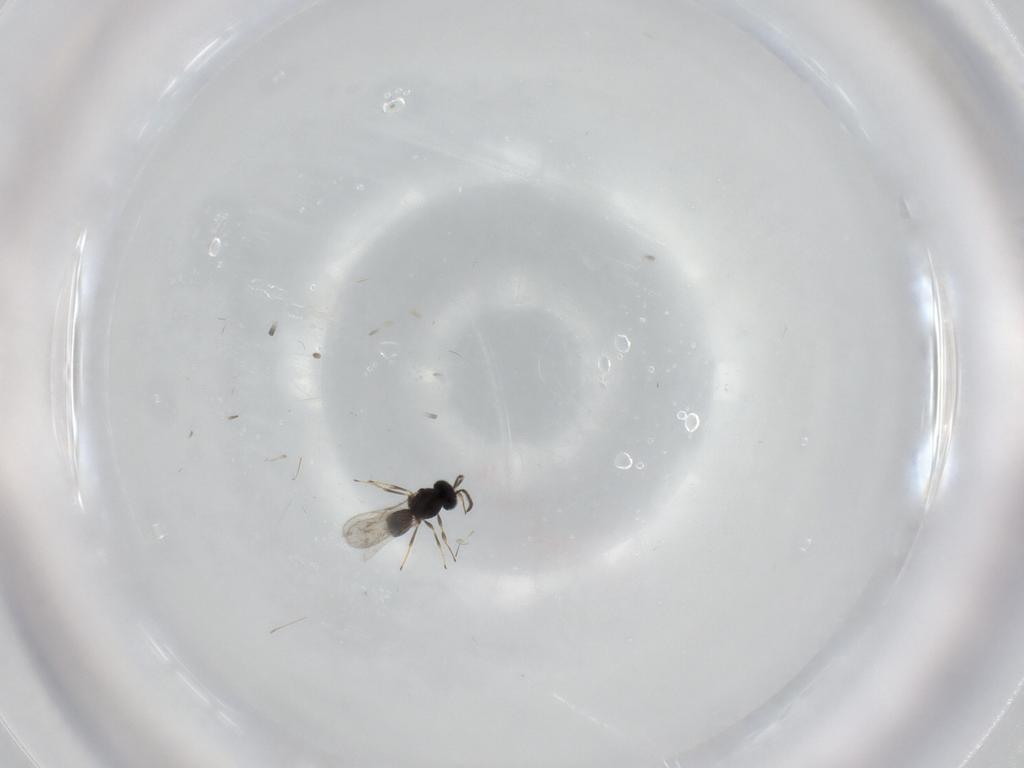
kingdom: Animalia
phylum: Arthropoda
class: Insecta
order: Hymenoptera
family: Scelionidae
